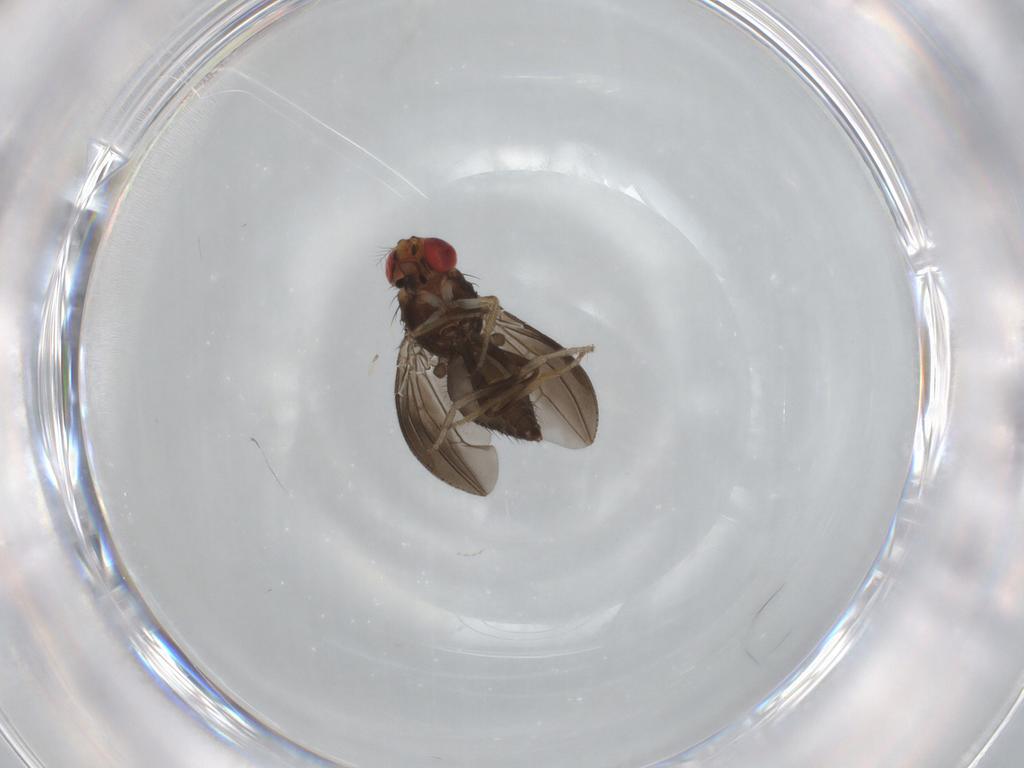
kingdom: Animalia
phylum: Arthropoda
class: Insecta
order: Diptera
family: Drosophilidae
